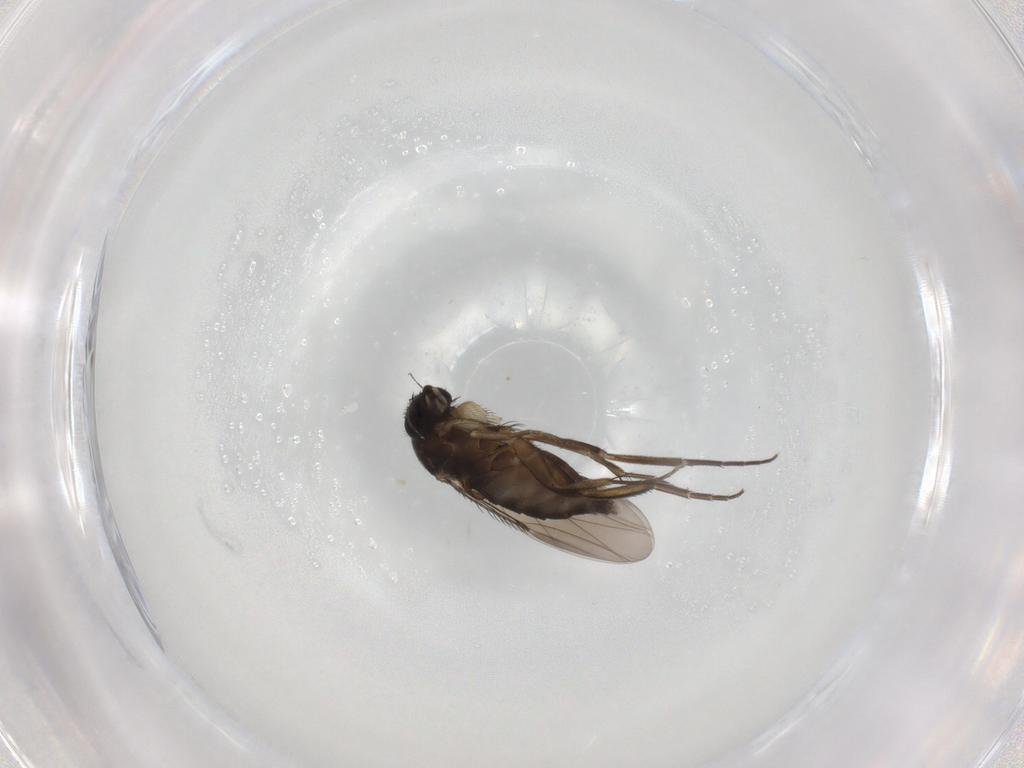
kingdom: Animalia
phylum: Arthropoda
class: Insecta
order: Diptera
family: Phoridae
